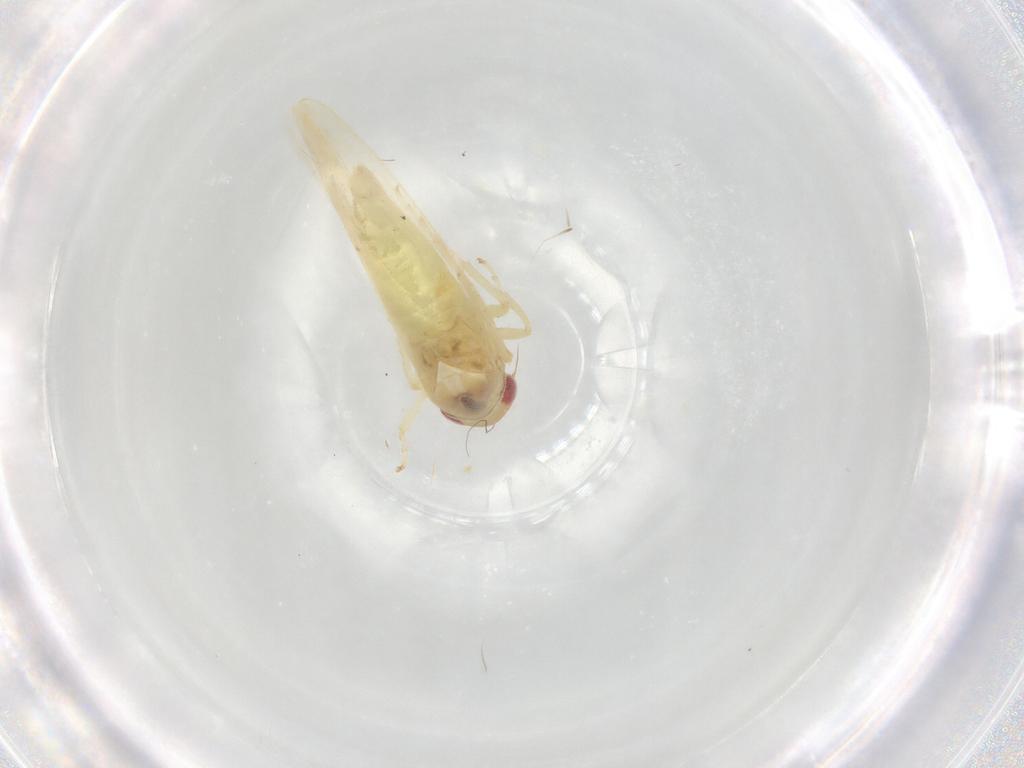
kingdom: Animalia
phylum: Arthropoda
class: Insecta
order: Hemiptera
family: Cicadellidae
